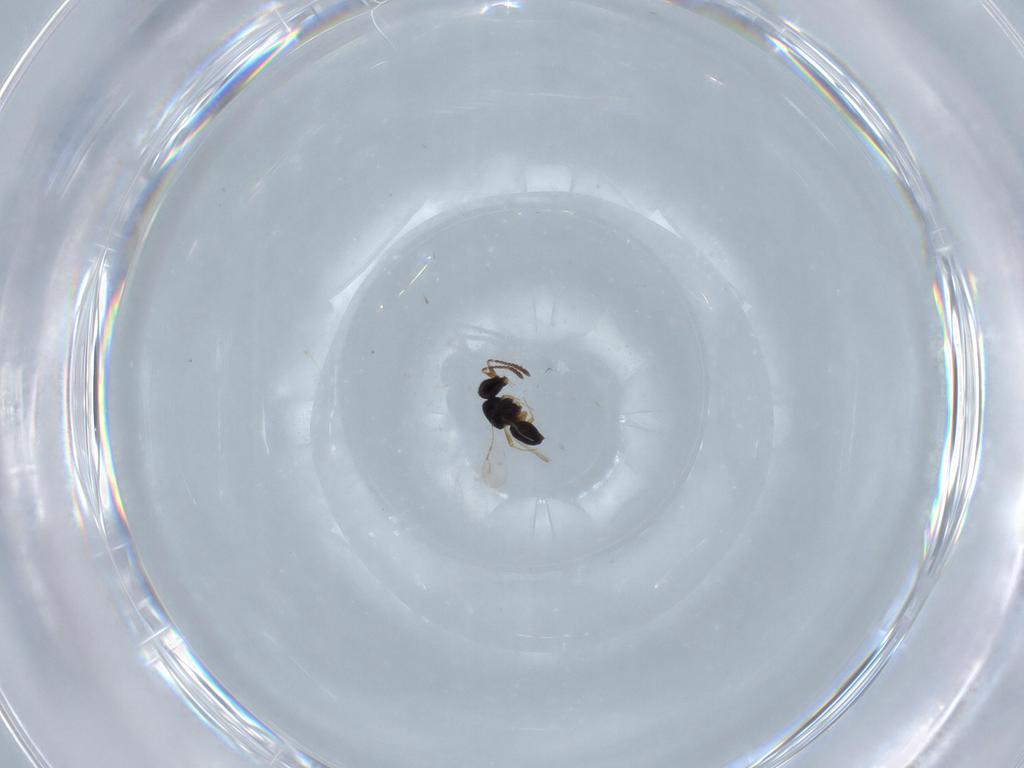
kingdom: Animalia
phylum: Arthropoda
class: Insecta
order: Hymenoptera
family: Ceraphronidae
